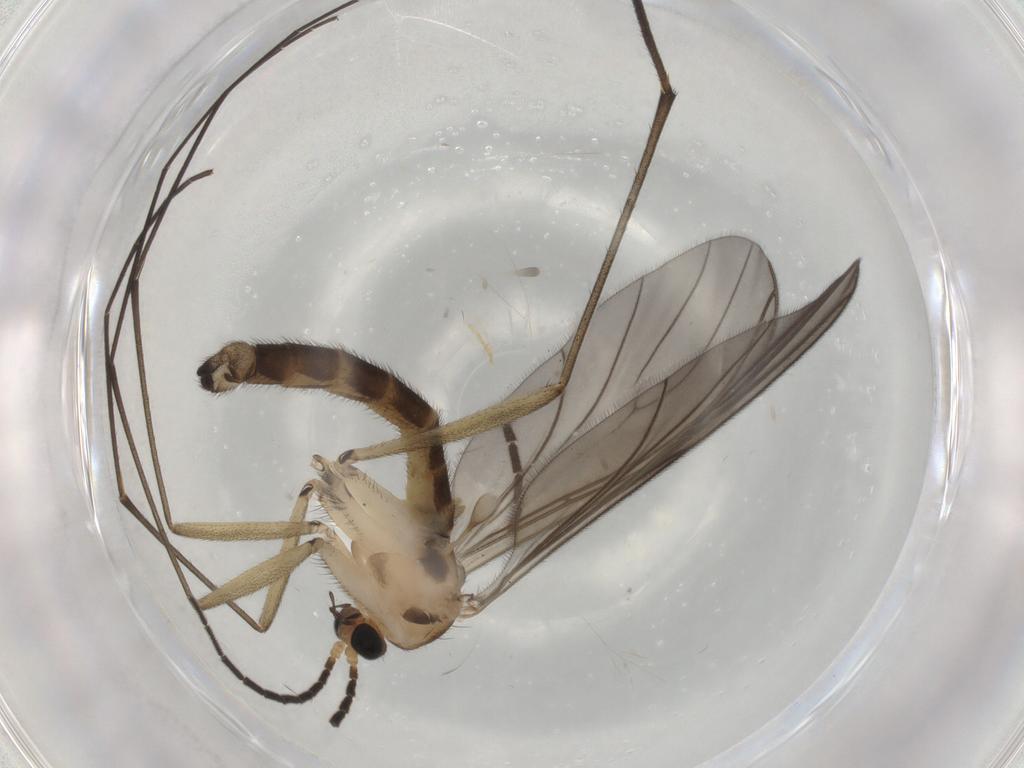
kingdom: Animalia
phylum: Arthropoda
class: Insecta
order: Diptera
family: Sciaridae
